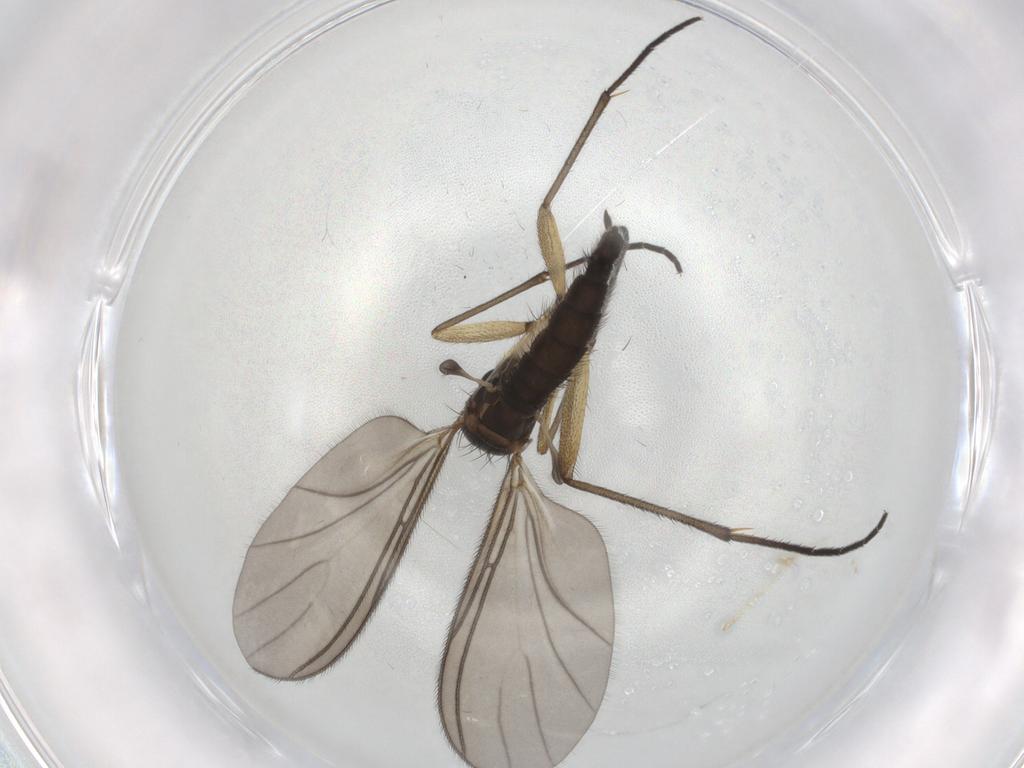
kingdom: Animalia
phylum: Arthropoda
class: Insecta
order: Diptera
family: Sciaridae
